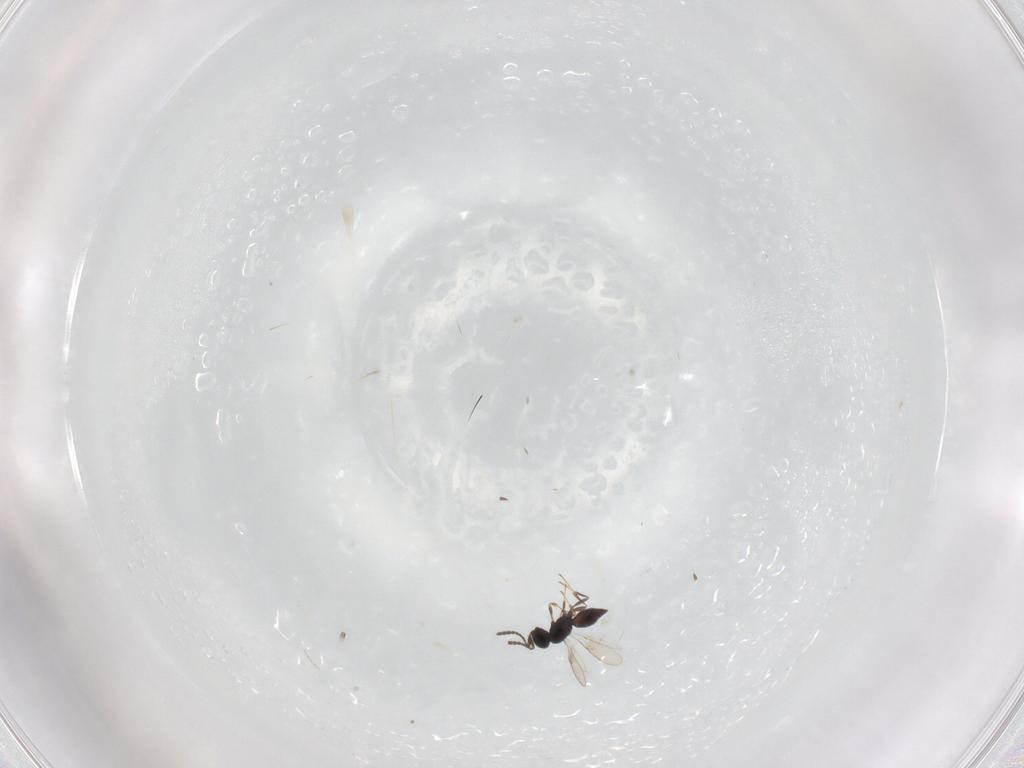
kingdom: Animalia
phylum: Arthropoda
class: Insecta
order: Hymenoptera
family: Scelionidae
